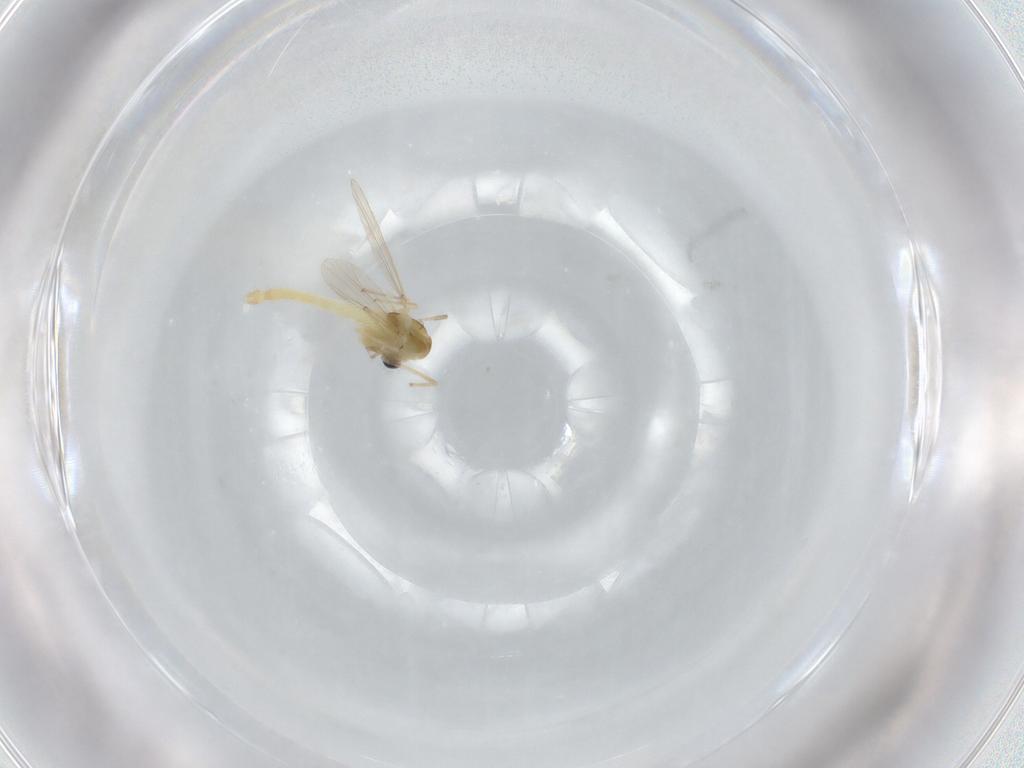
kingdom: Animalia
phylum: Arthropoda
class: Insecta
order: Diptera
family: Chironomidae
